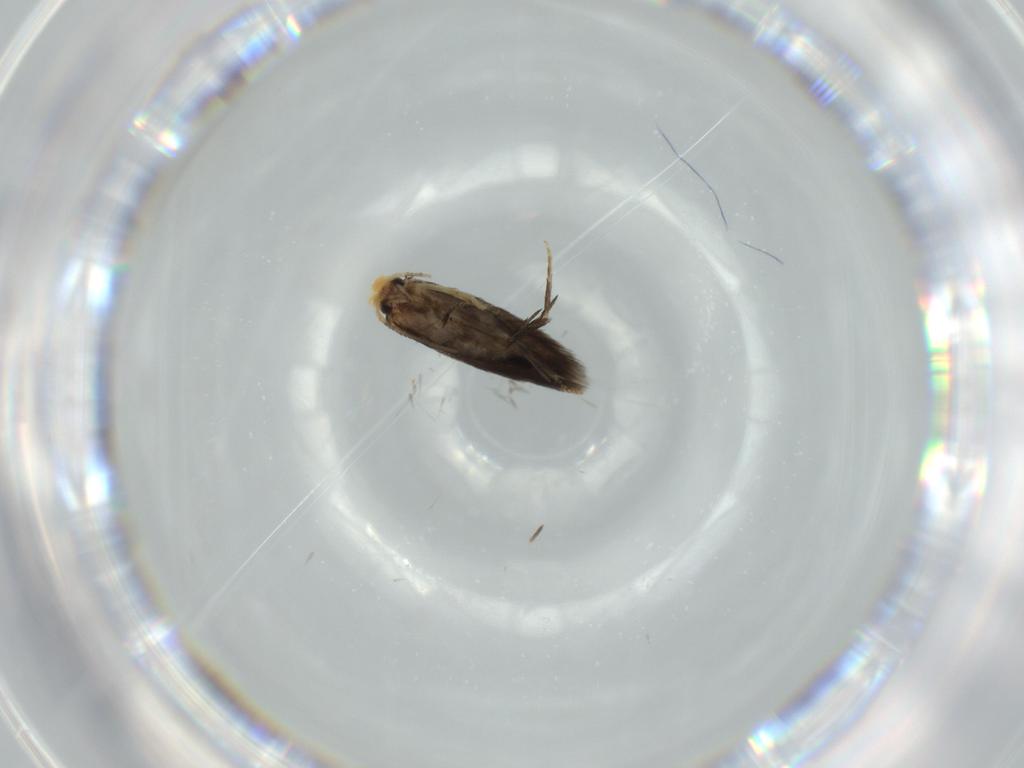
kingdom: Animalia
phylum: Arthropoda
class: Insecta
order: Lepidoptera
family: Nepticulidae
